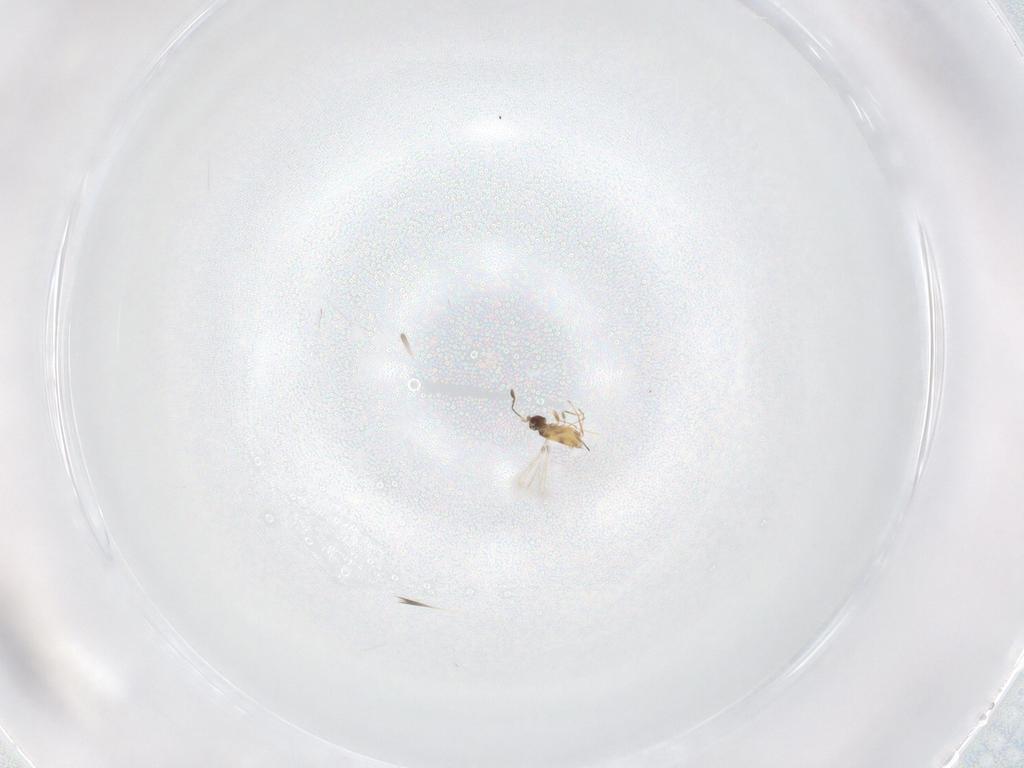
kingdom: Animalia
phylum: Arthropoda
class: Insecta
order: Hymenoptera
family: Mymaridae
